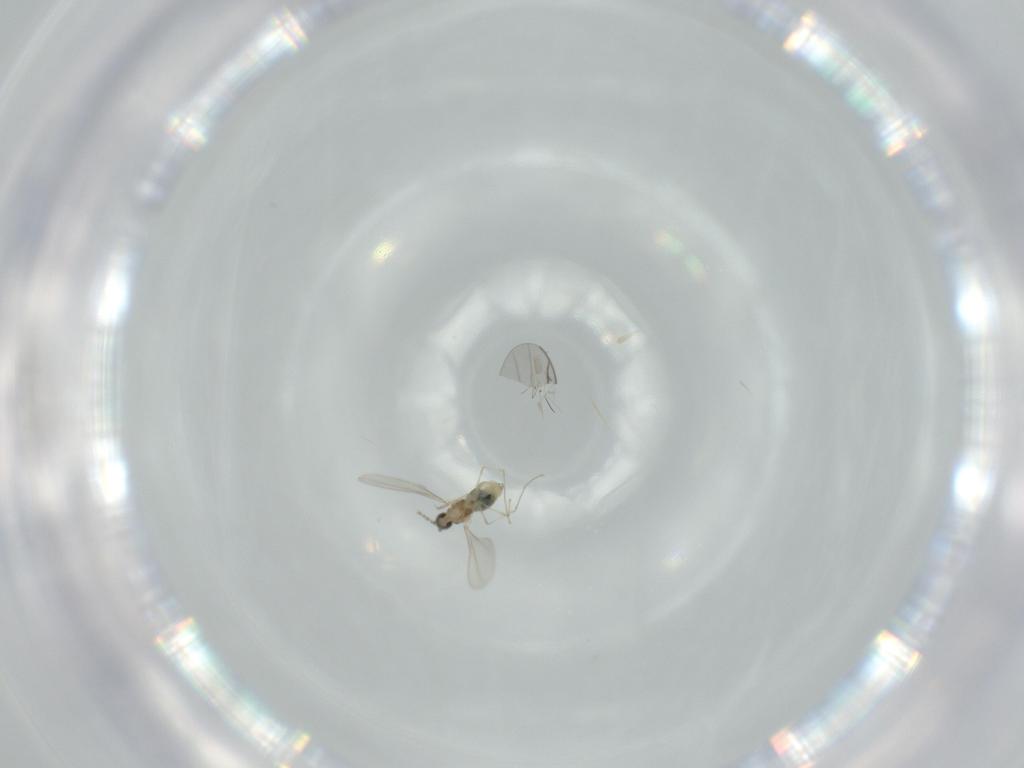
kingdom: Animalia
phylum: Arthropoda
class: Insecta
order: Diptera
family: Cecidomyiidae
